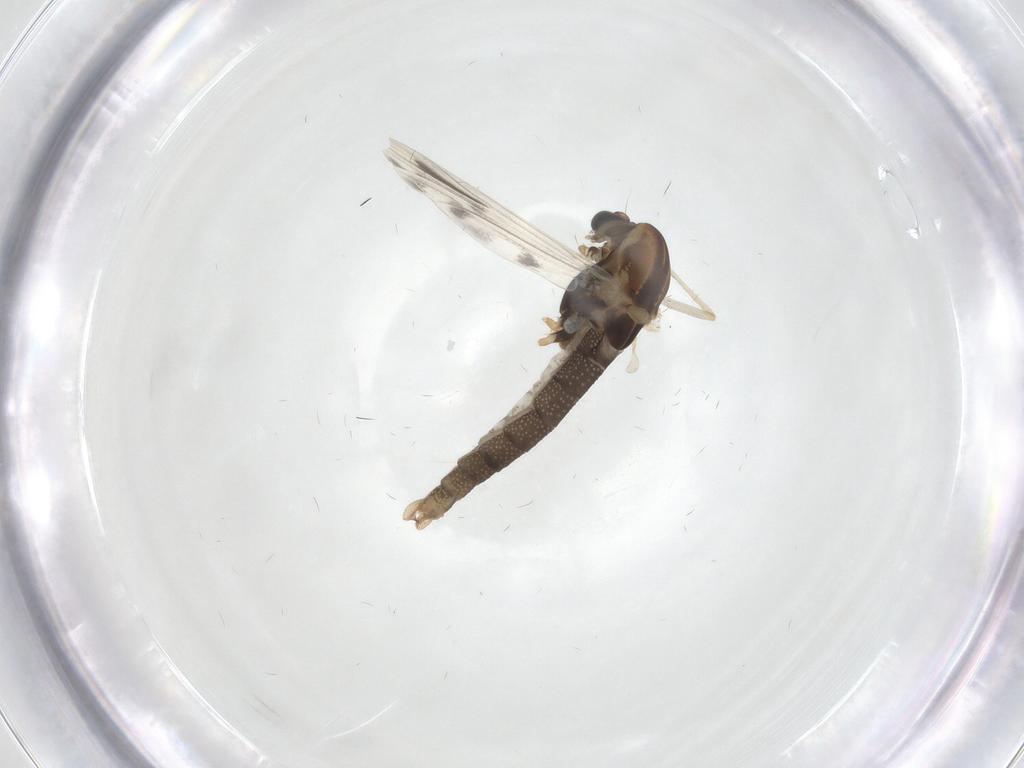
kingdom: Animalia
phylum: Arthropoda
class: Insecta
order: Diptera
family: Chironomidae
